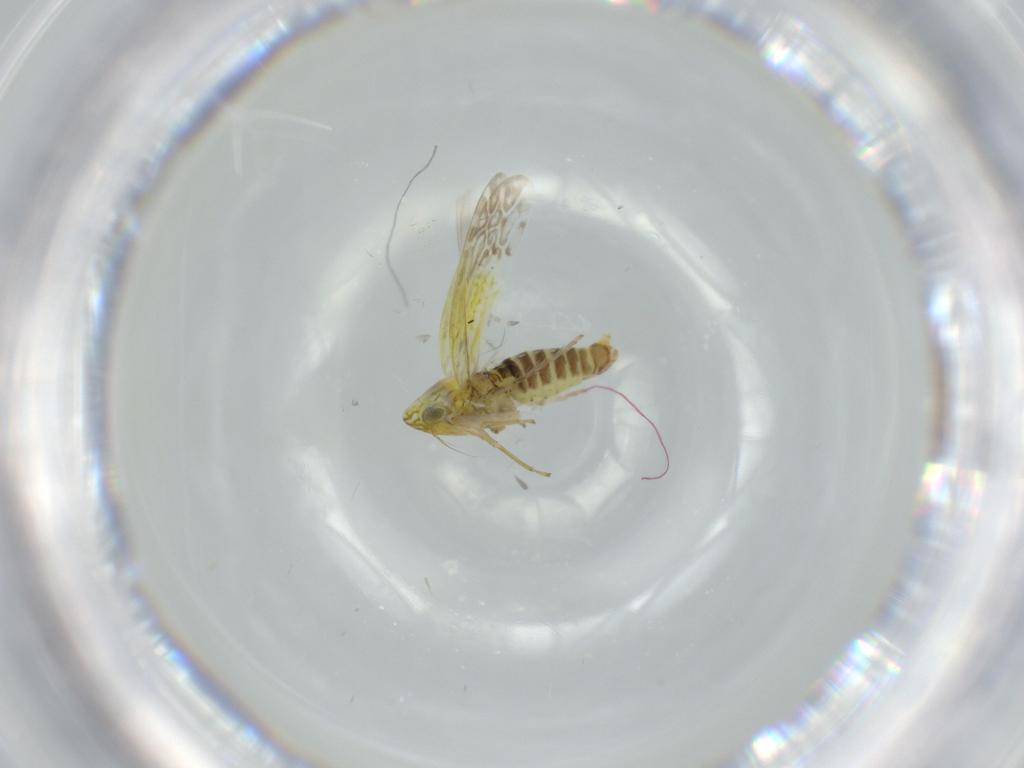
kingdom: Animalia
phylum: Arthropoda
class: Insecta
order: Hemiptera
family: Cicadellidae
